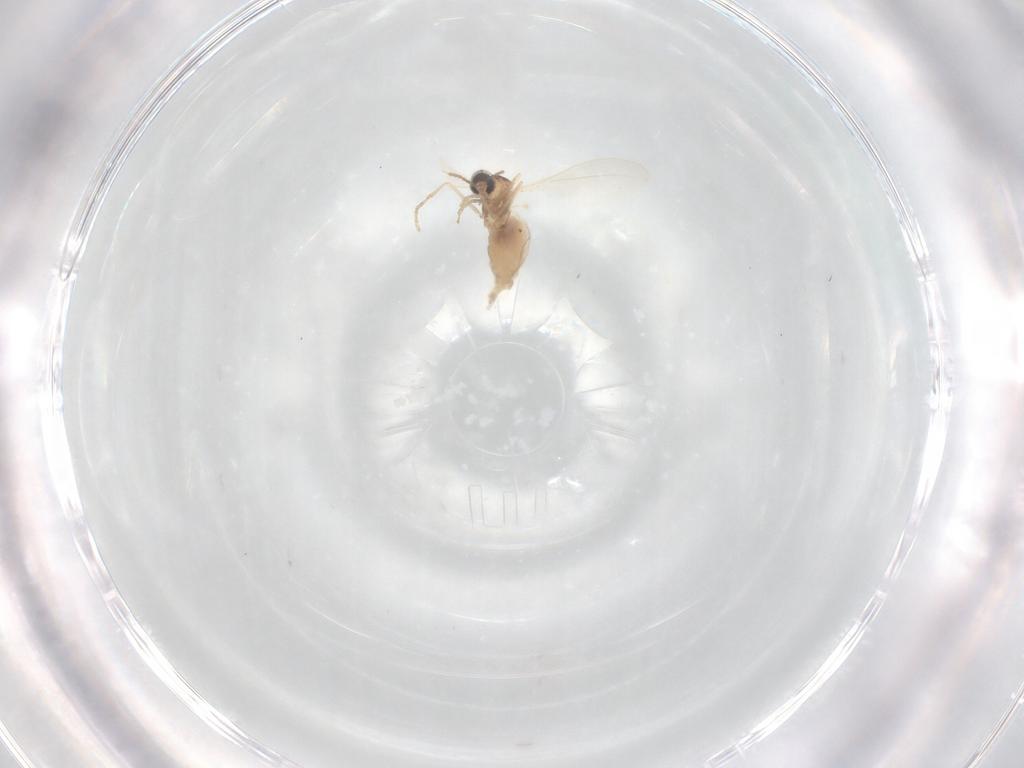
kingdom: Animalia
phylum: Arthropoda
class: Insecta
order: Diptera
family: Cecidomyiidae
